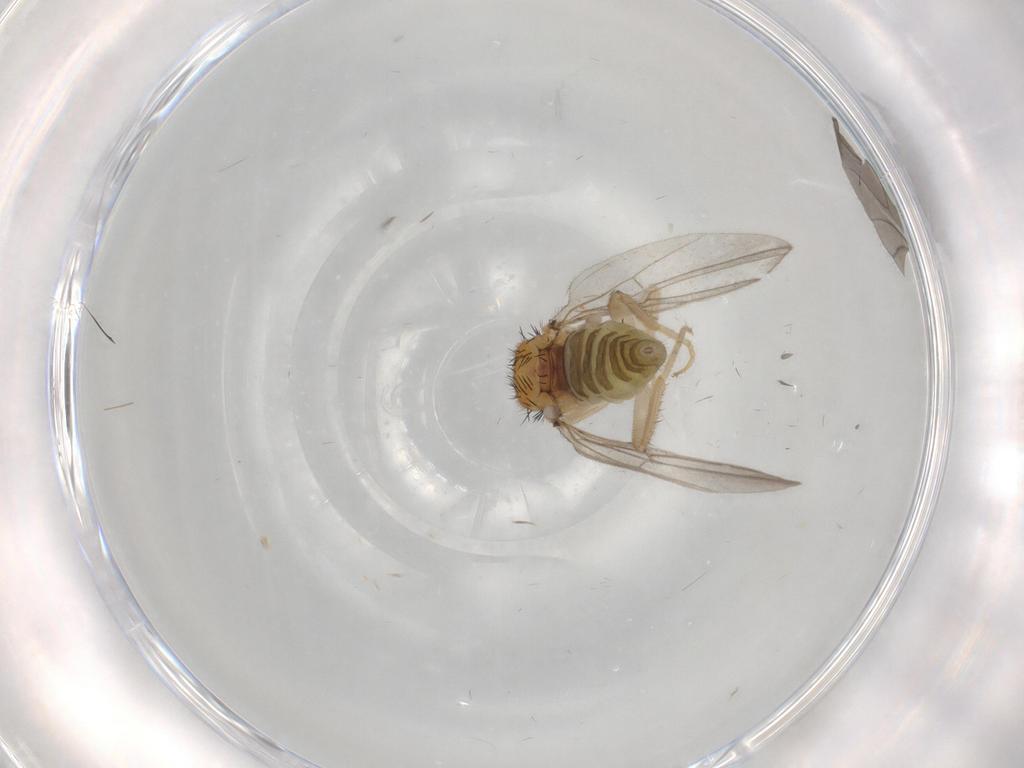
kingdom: Animalia
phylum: Arthropoda
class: Insecta
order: Diptera
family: Hybotidae
